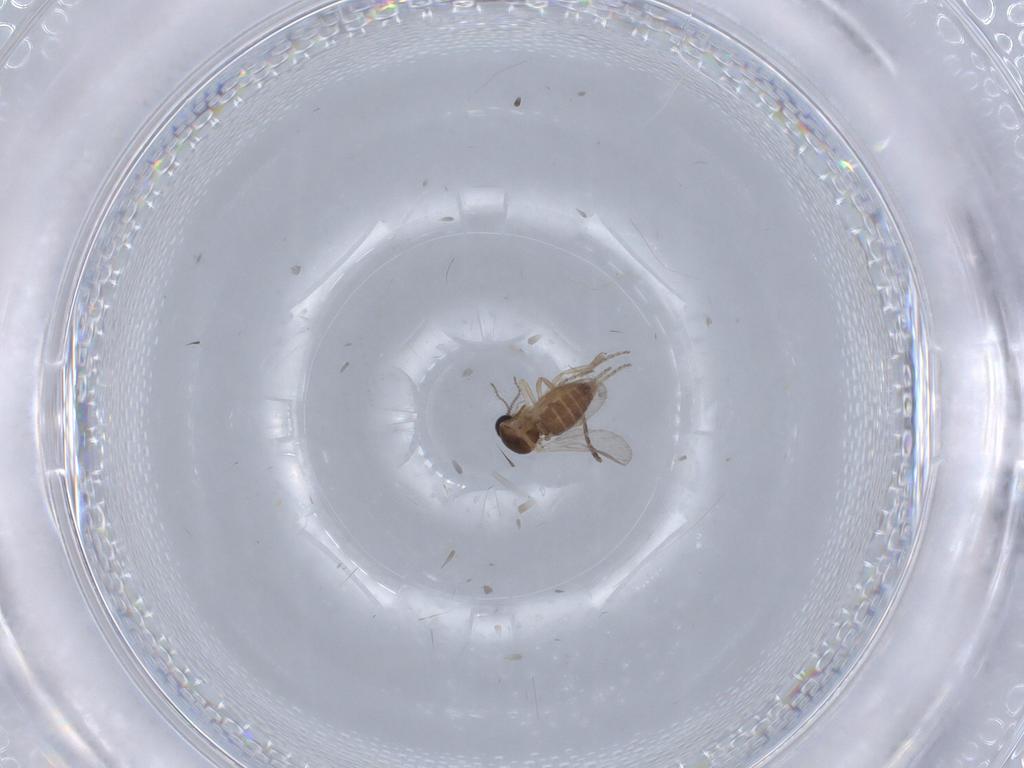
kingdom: Animalia
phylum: Arthropoda
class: Insecta
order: Diptera
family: Ceratopogonidae
